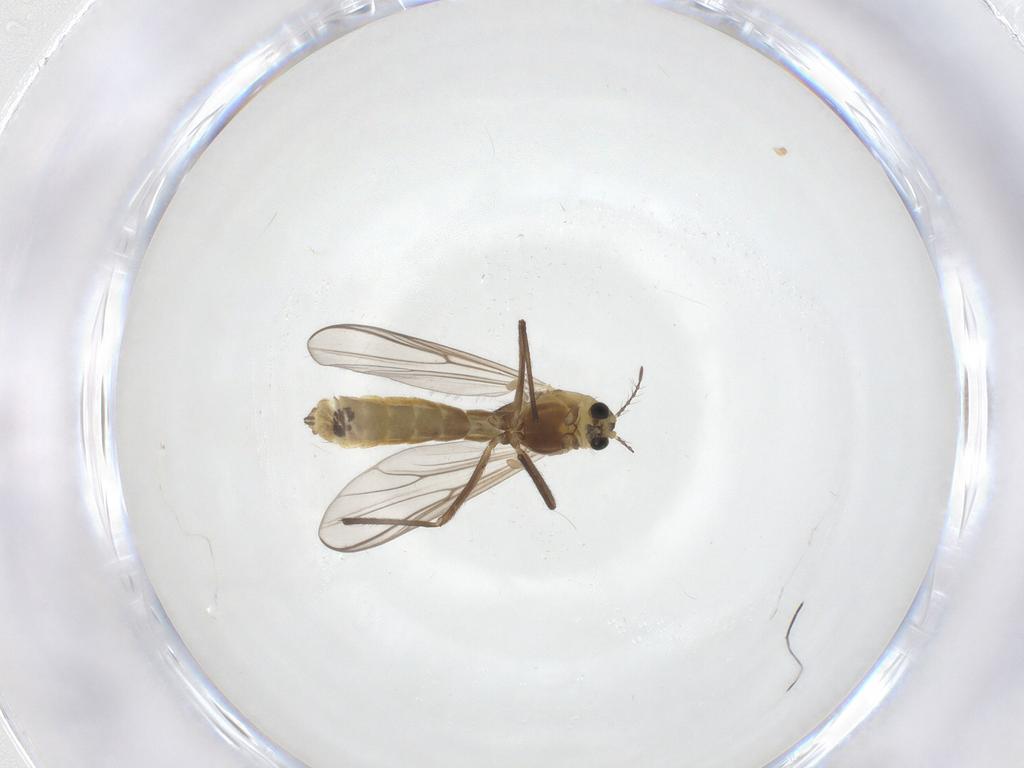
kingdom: Animalia
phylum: Arthropoda
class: Insecta
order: Diptera
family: Chironomidae
